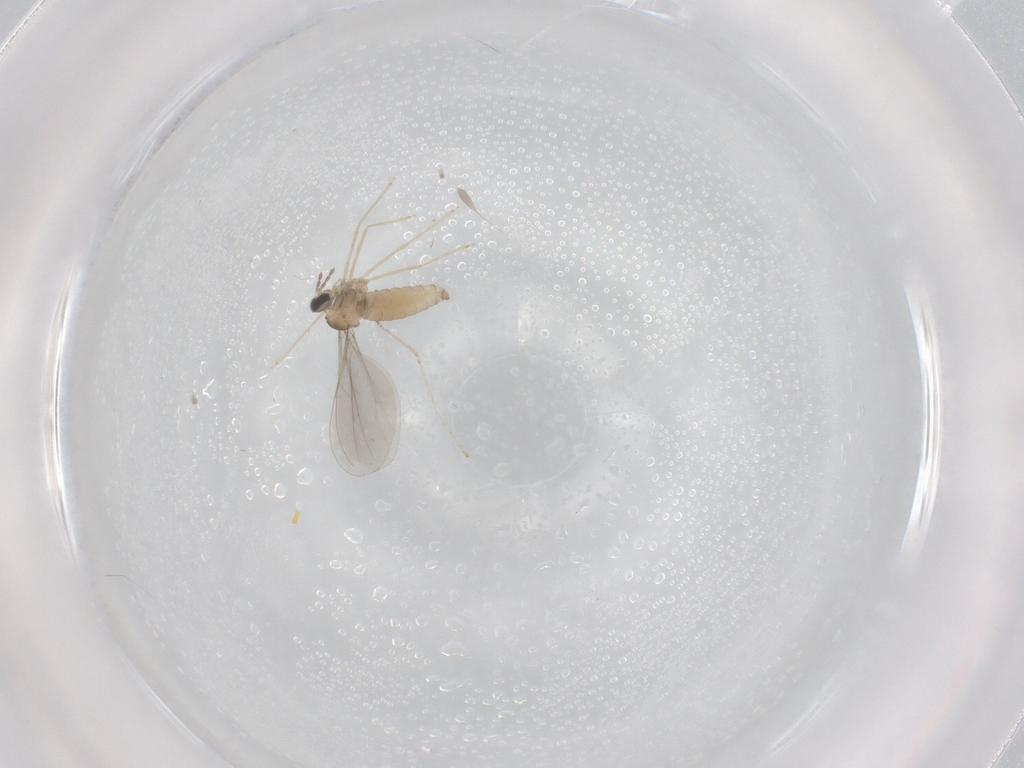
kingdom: Animalia
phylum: Arthropoda
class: Insecta
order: Diptera
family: Cecidomyiidae
